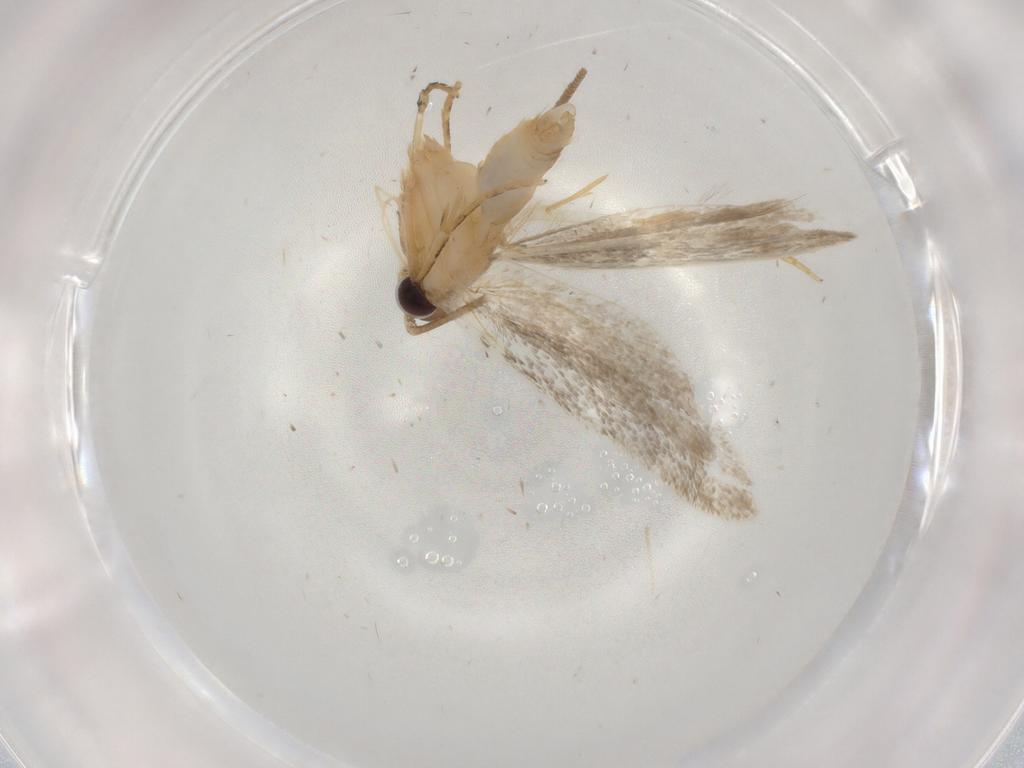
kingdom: Animalia
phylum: Arthropoda
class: Insecta
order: Lepidoptera
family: Autostichidae
